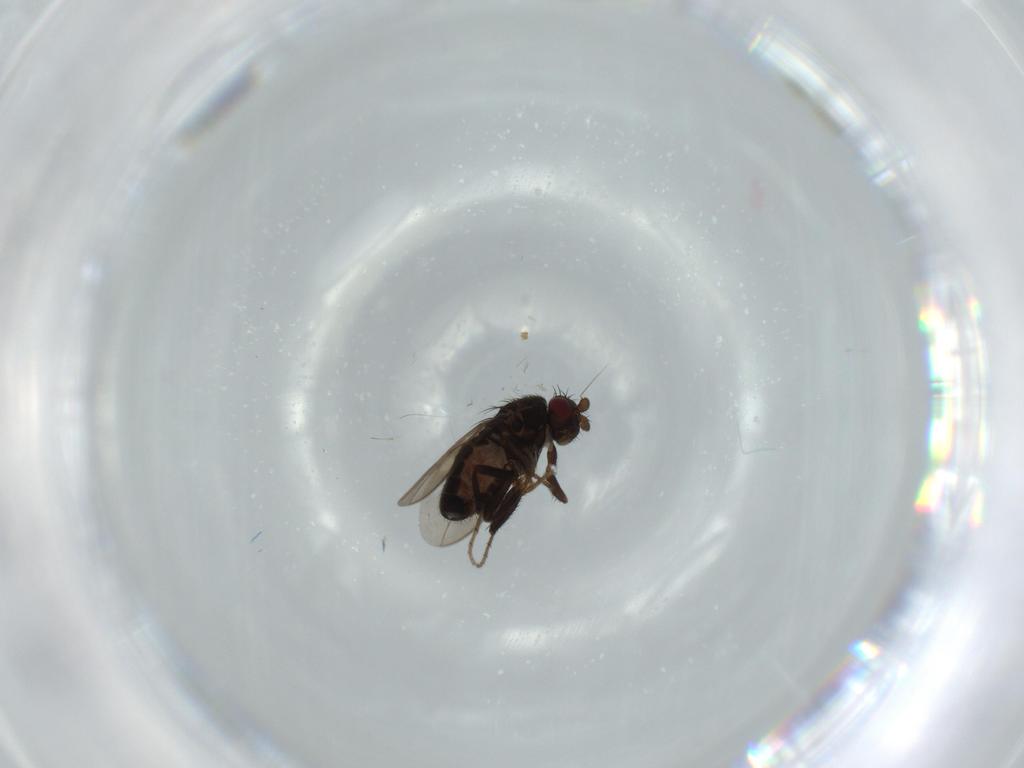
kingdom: Animalia
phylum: Arthropoda
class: Insecta
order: Diptera
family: Sphaeroceridae
